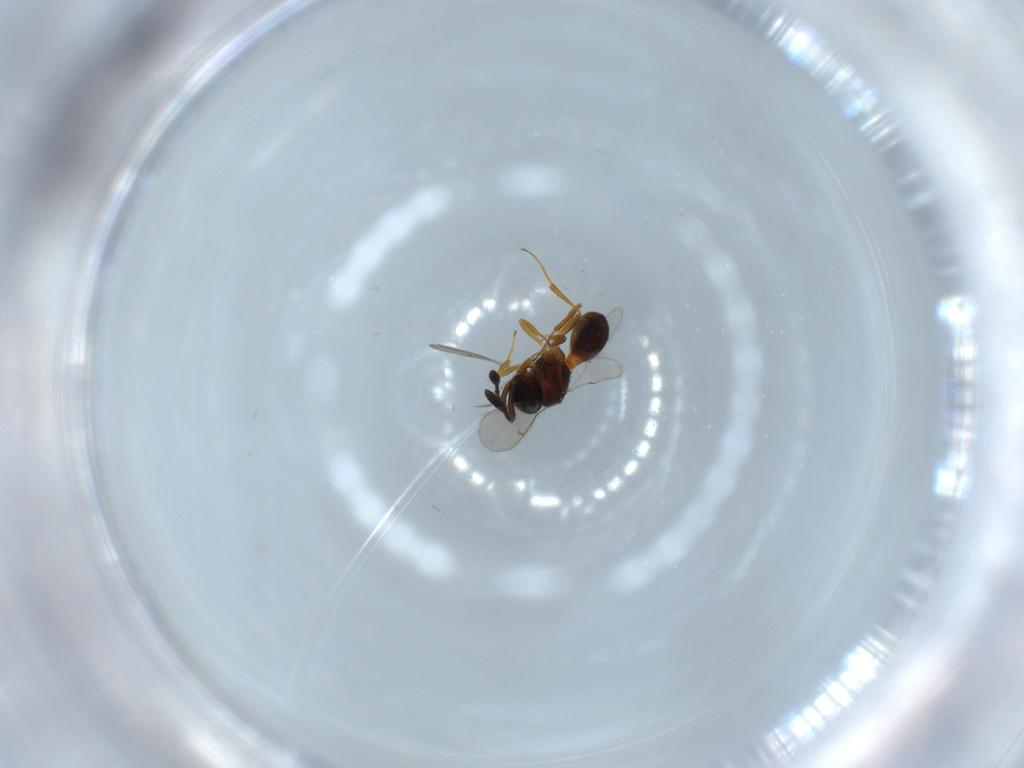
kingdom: Animalia
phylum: Arthropoda
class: Insecta
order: Hymenoptera
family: Scelionidae
